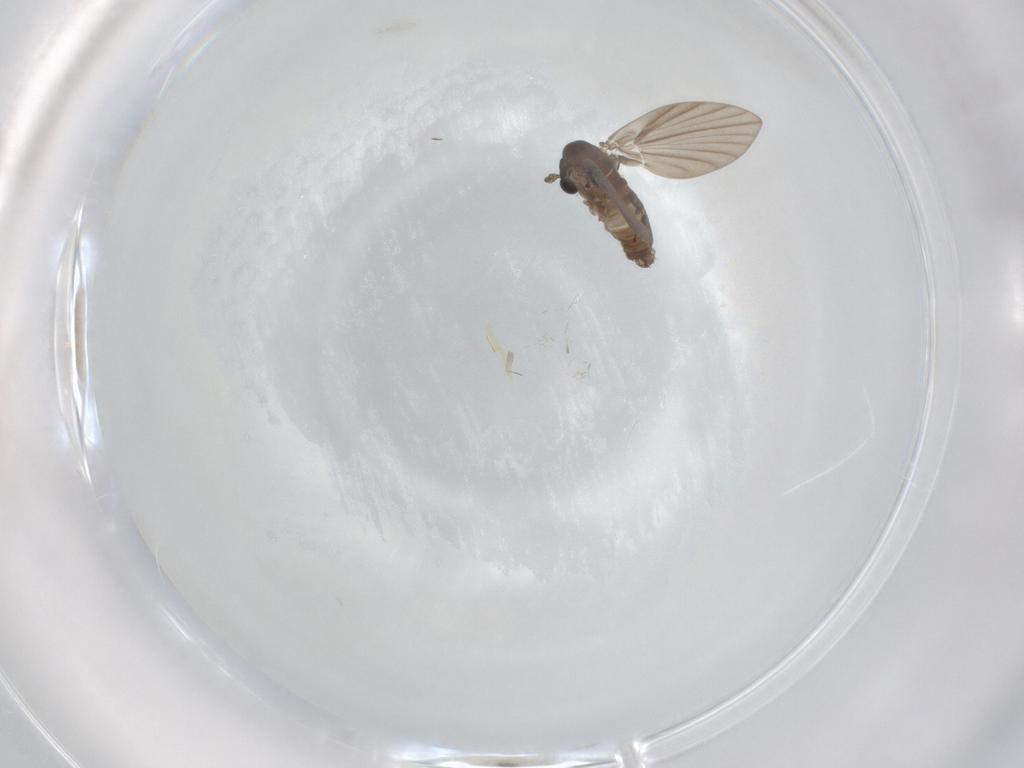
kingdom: Animalia
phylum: Arthropoda
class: Insecta
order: Diptera
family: Psychodidae
